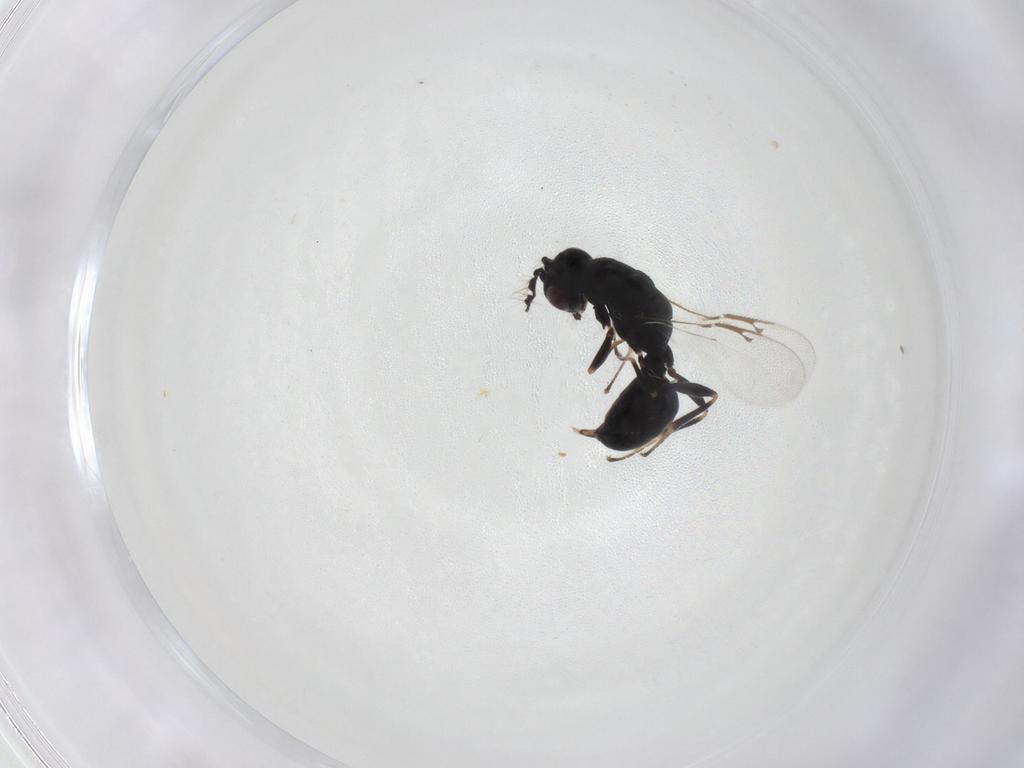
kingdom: Animalia
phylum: Arthropoda
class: Insecta
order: Hymenoptera
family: Eurytomidae
